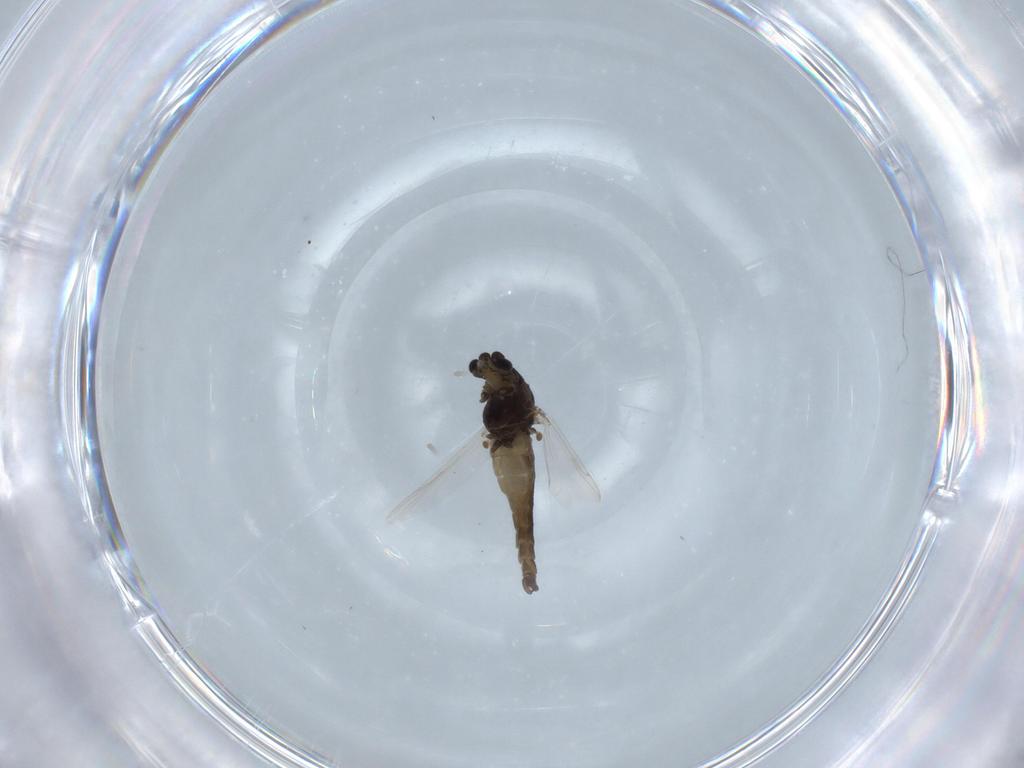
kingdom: Animalia
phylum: Arthropoda
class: Insecta
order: Diptera
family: Chironomidae
